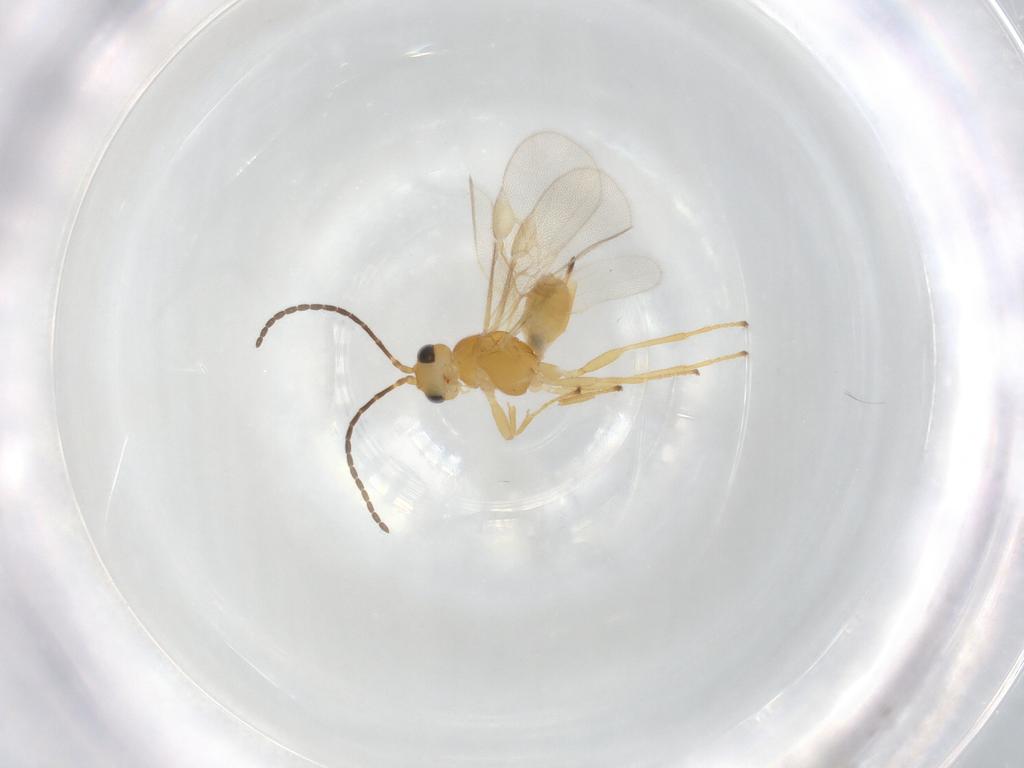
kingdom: Animalia
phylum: Arthropoda
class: Insecta
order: Hymenoptera
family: Braconidae
